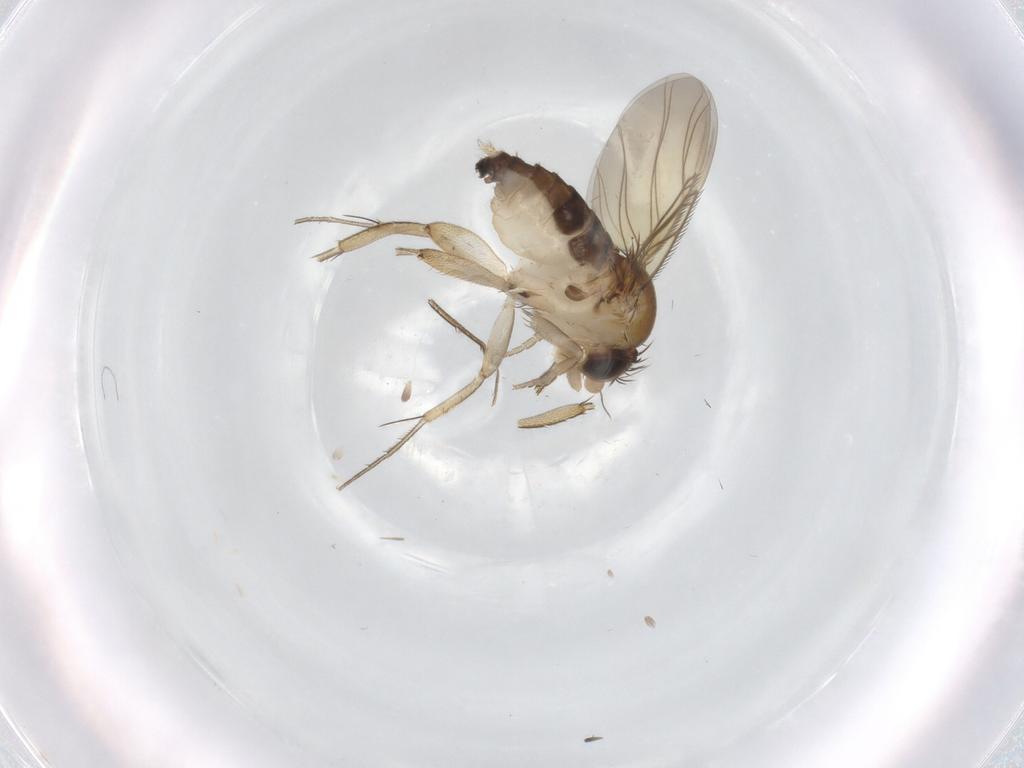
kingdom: Animalia
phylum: Arthropoda
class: Insecta
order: Diptera
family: Phoridae
